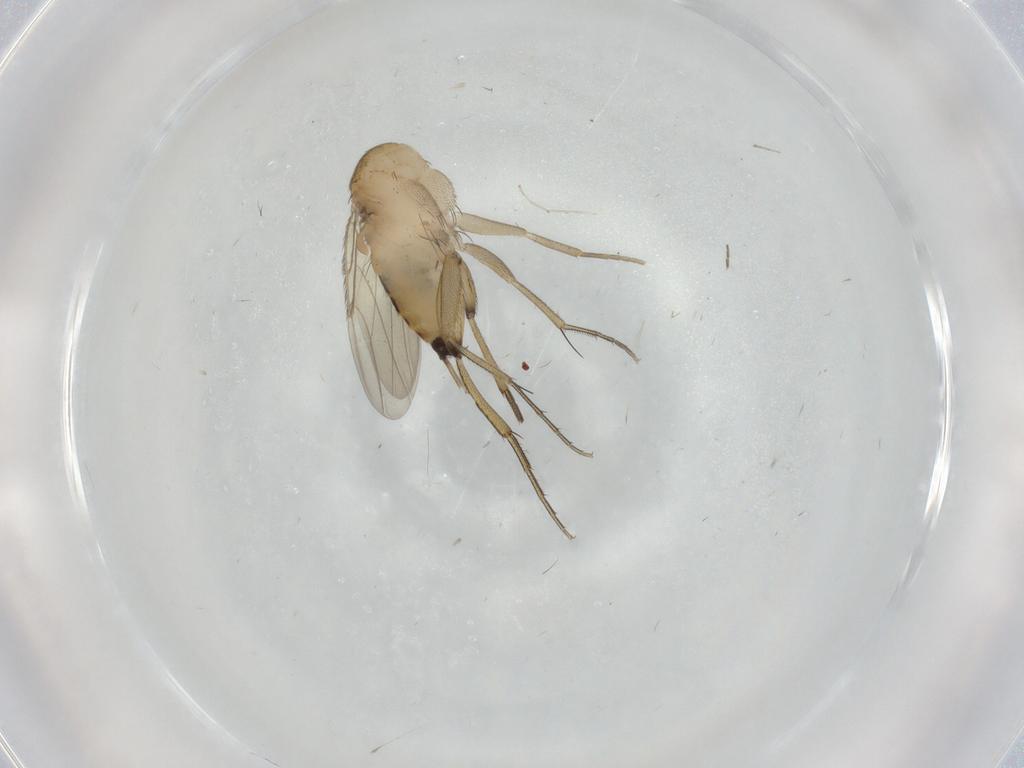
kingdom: Animalia
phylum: Arthropoda
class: Insecta
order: Diptera
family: Phoridae
